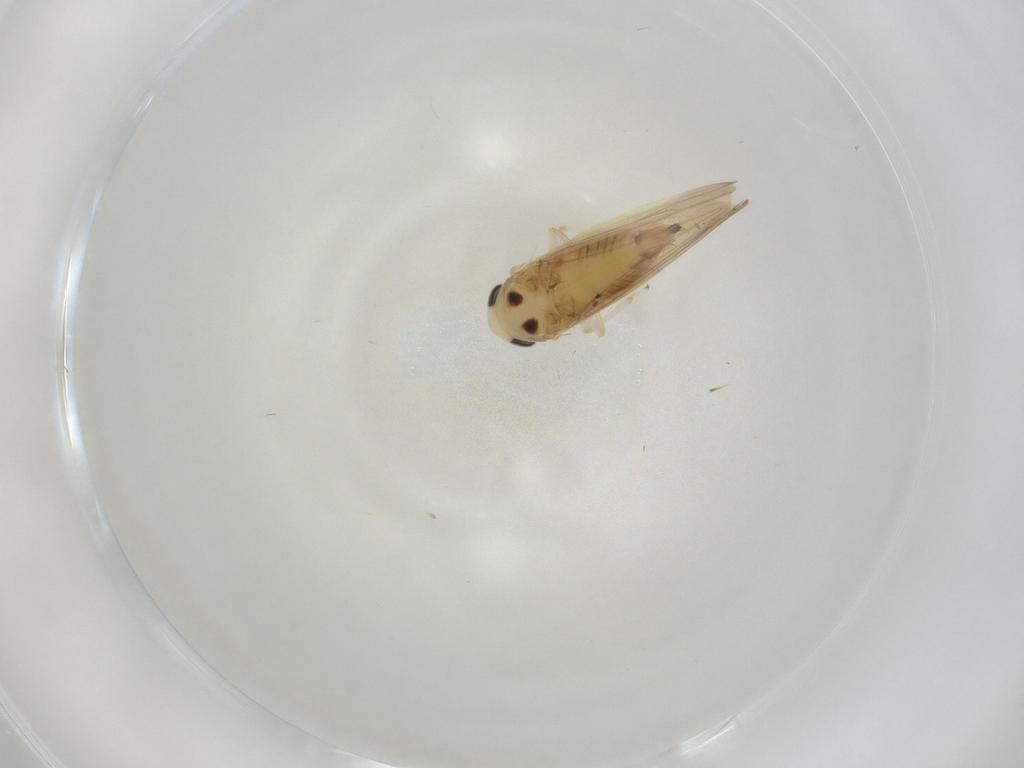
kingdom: Animalia
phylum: Arthropoda
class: Insecta
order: Hemiptera
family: Cicadellidae
